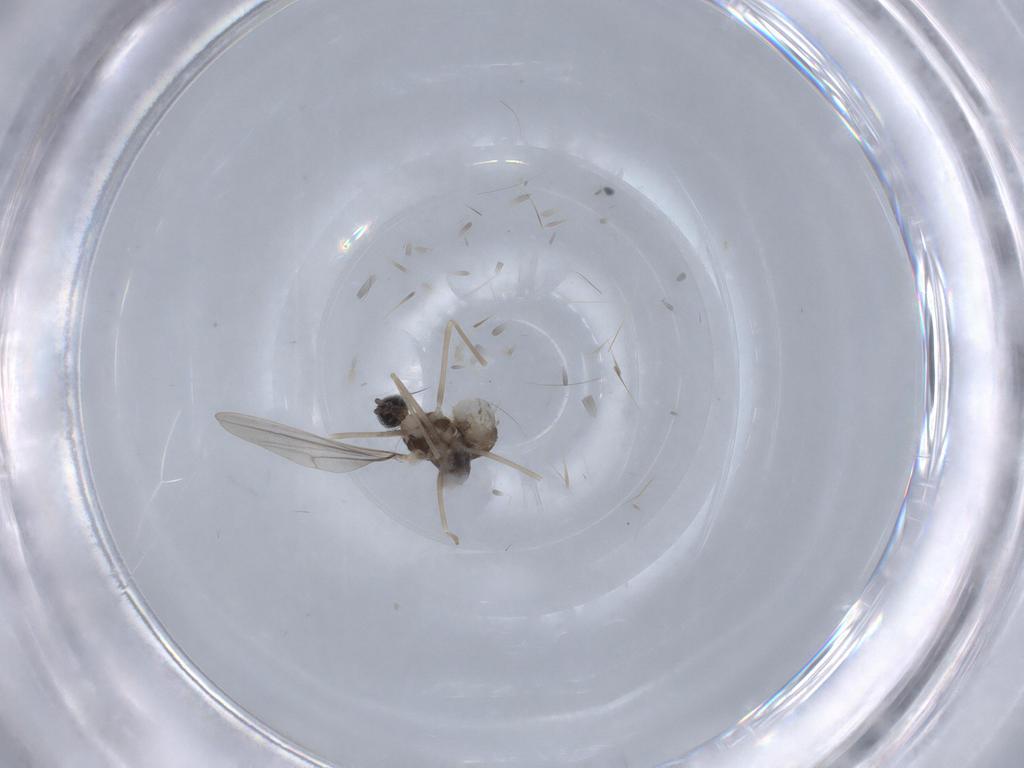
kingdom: Animalia
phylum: Arthropoda
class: Insecta
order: Diptera
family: Cecidomyiidae
